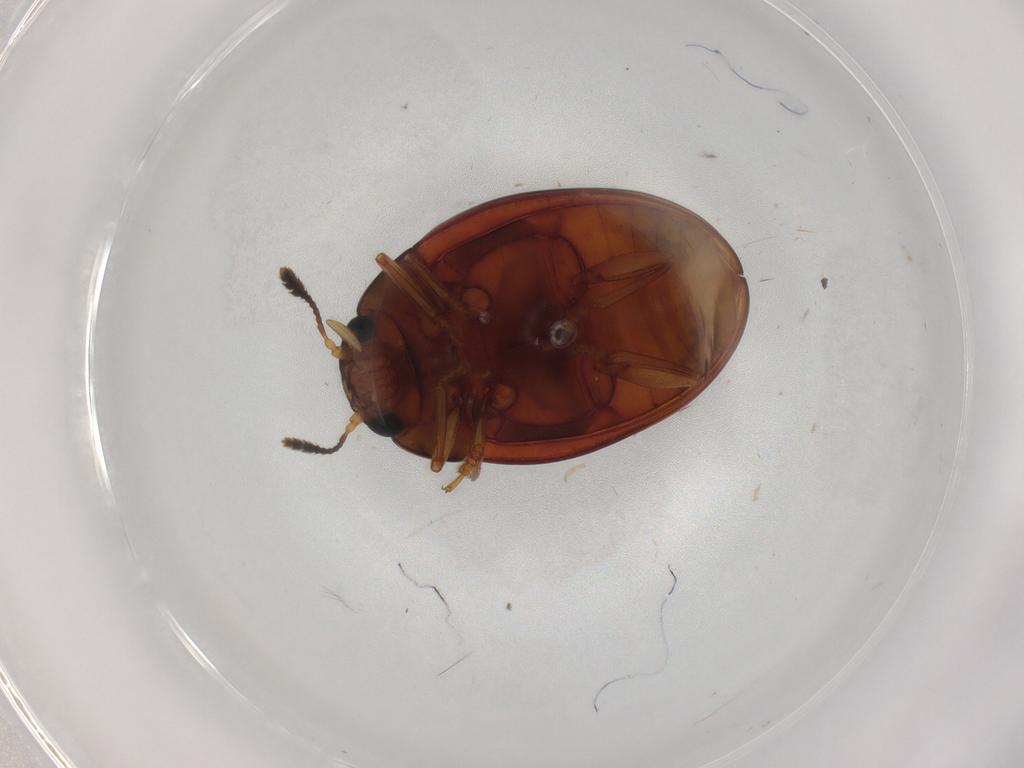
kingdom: Animalia
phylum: Arthropoda
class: Insecta
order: Coleoptera
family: Erotylidae
